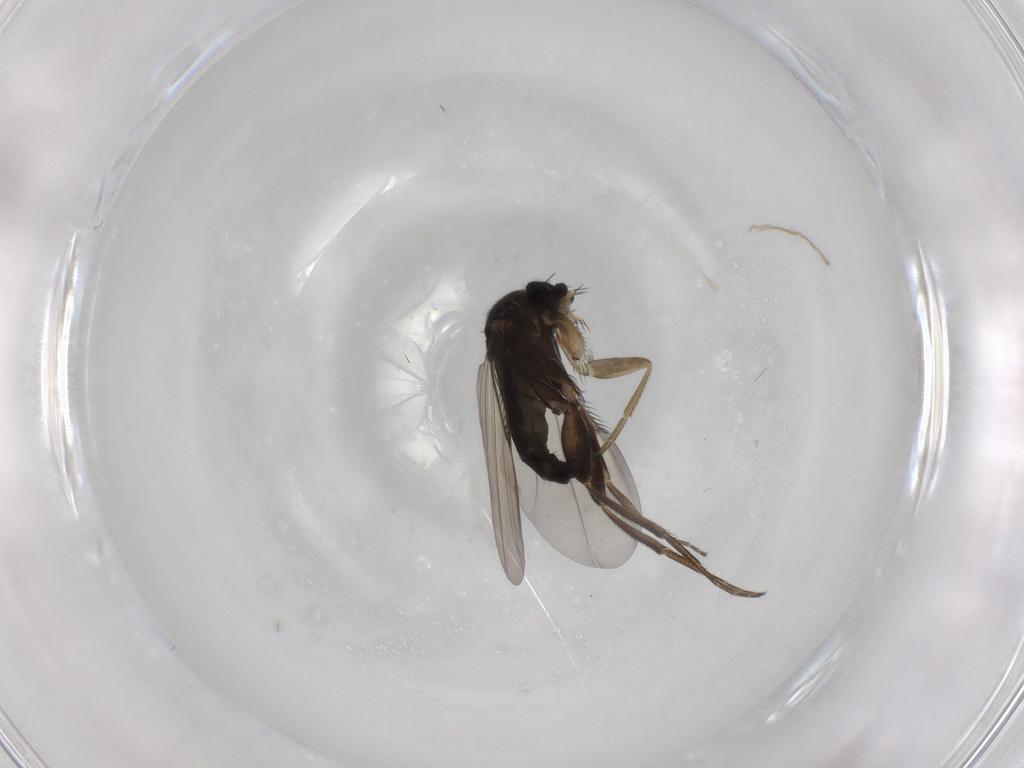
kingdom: Animalia
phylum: Arthropoda
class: Insecta
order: Diptera
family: Phoridae
